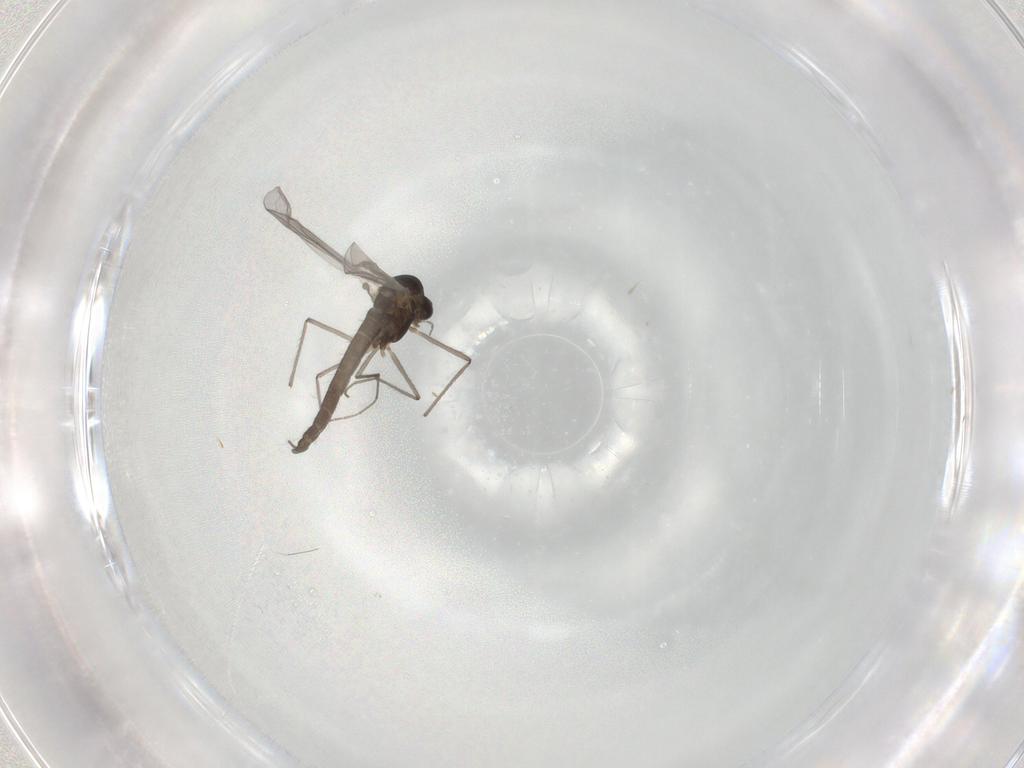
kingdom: Animalia
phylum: Arthropoda
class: Insecta
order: Diptera
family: Chironomidae
